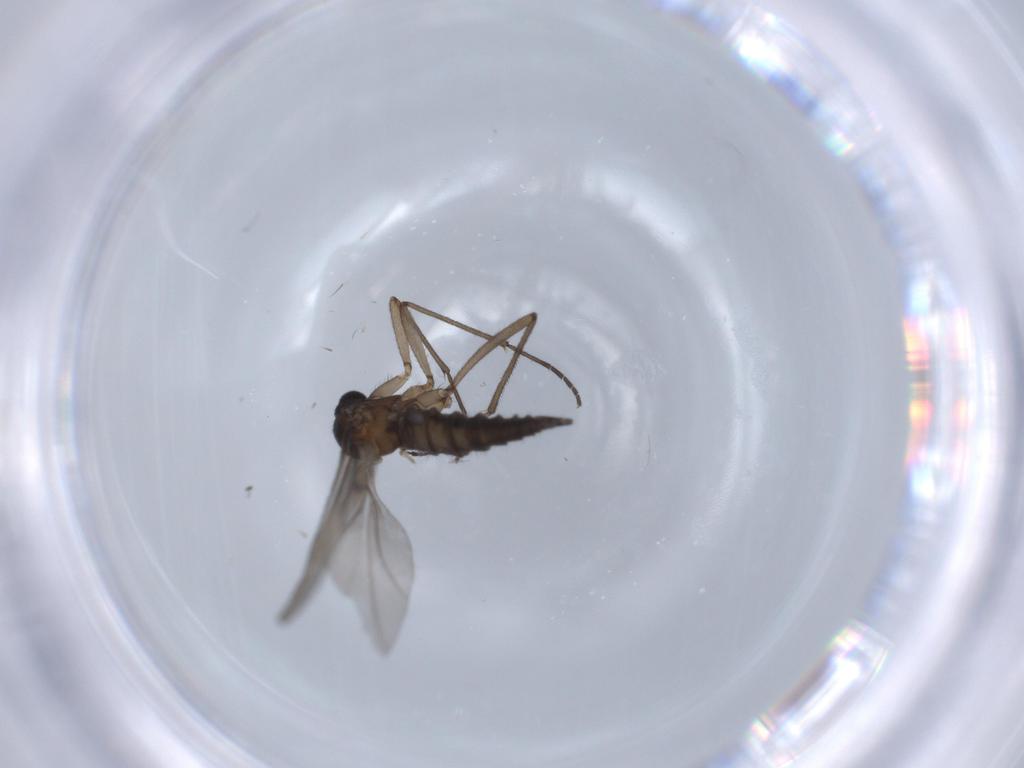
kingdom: Animalia
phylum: Arthropoda
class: Insecta
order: Diptera
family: Sciaridae
